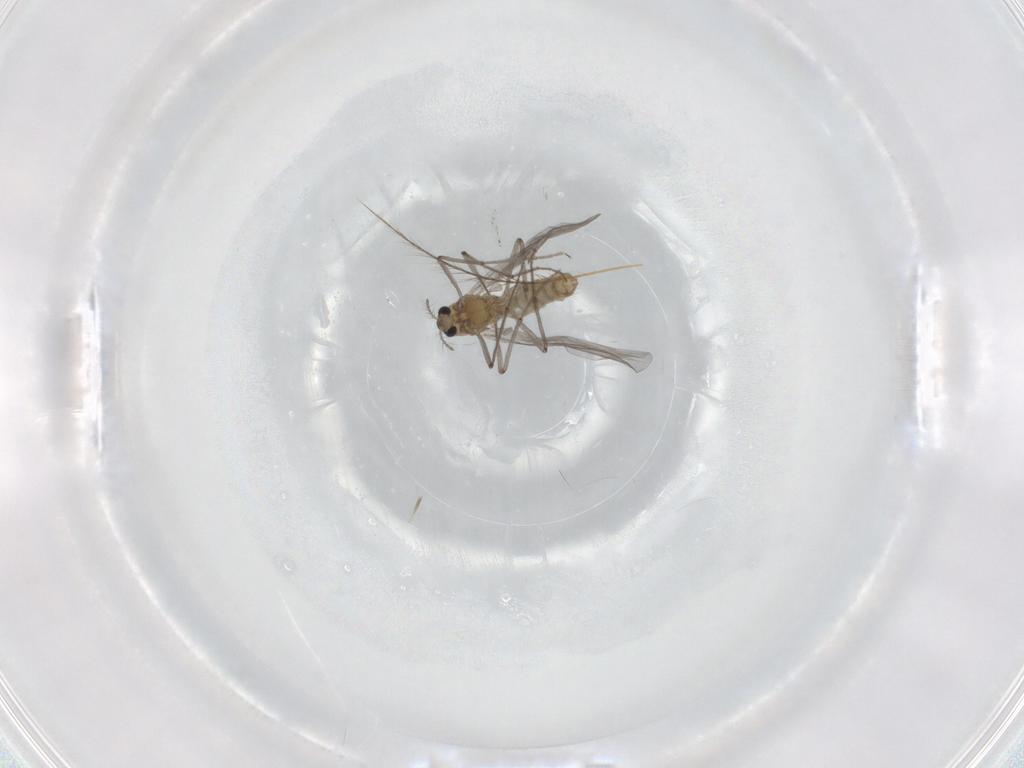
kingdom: Animalia
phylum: Arthropoda
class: Insecta
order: Diptera
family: Chironomidae
